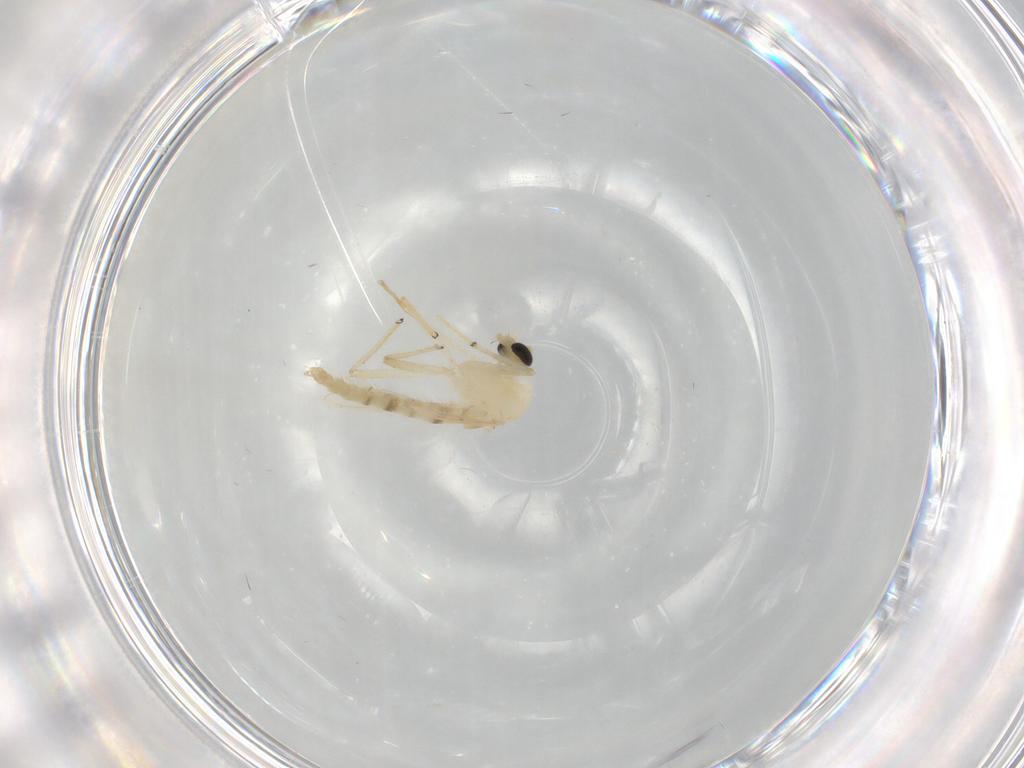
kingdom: Animalia
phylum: Arthropoda
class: Insecta
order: Diptera
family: Chironomidae
